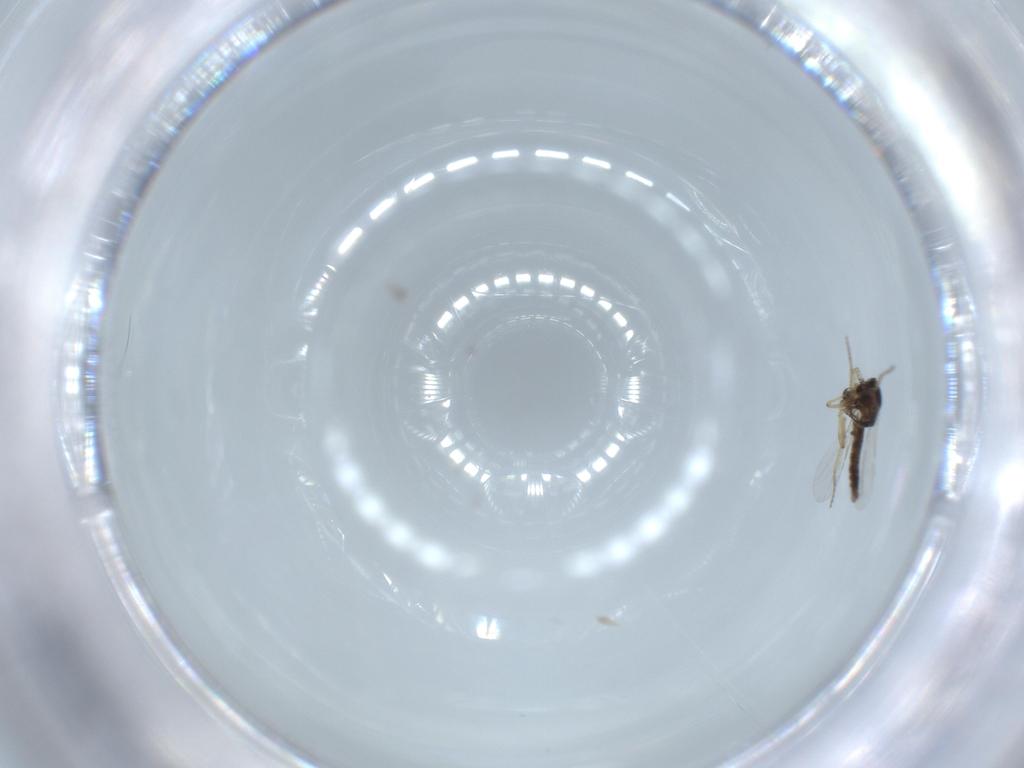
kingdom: Animalia
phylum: Arthropoda
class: Insecta
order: Diptera
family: Ceratopogonidae
